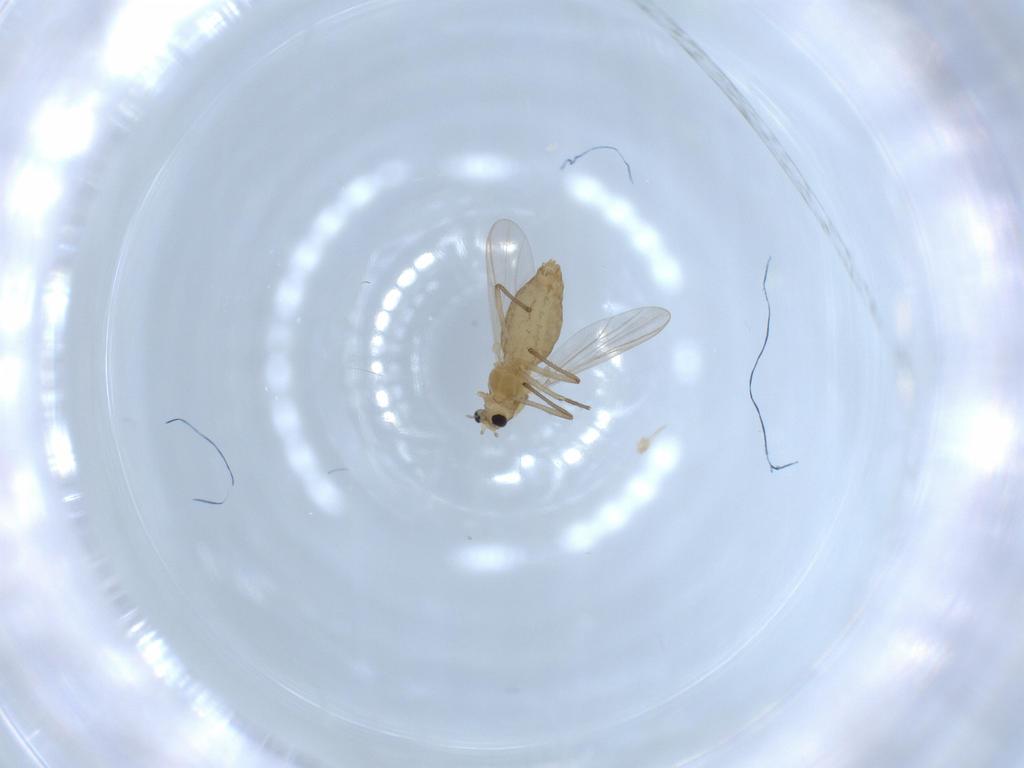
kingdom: Animalia
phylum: Arthropoda
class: Insecta
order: Diptera
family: Chironomidae
